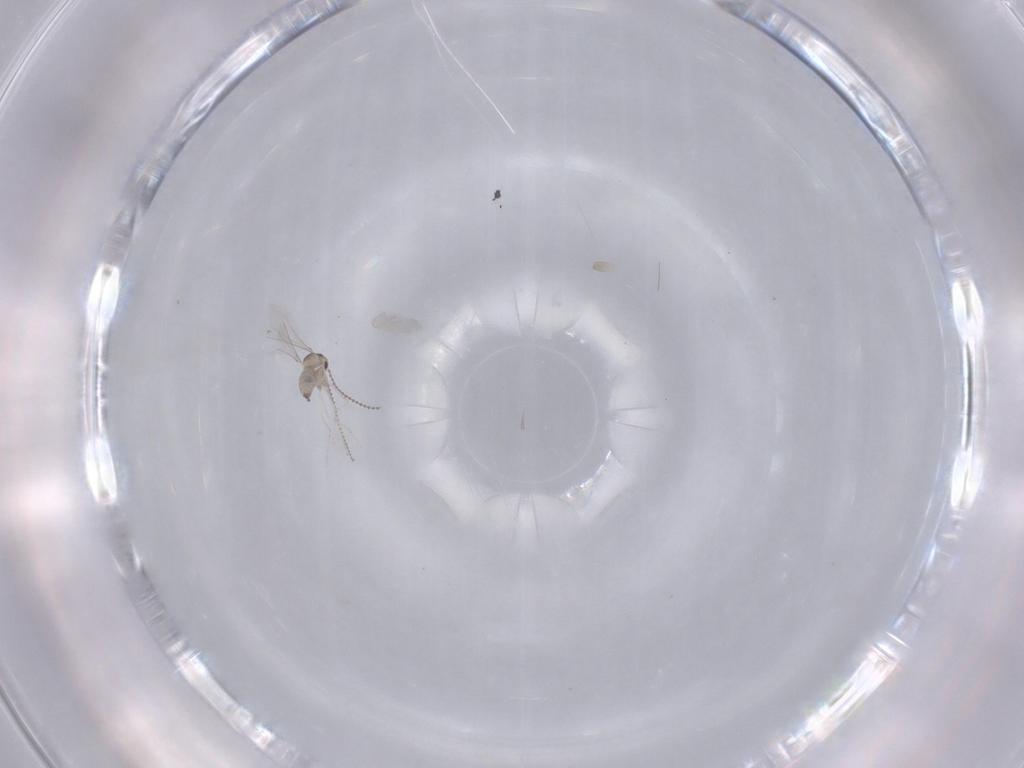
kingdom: Animalia
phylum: Arthropoda
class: Insecta
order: Diptera
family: Cecidomyiidae
